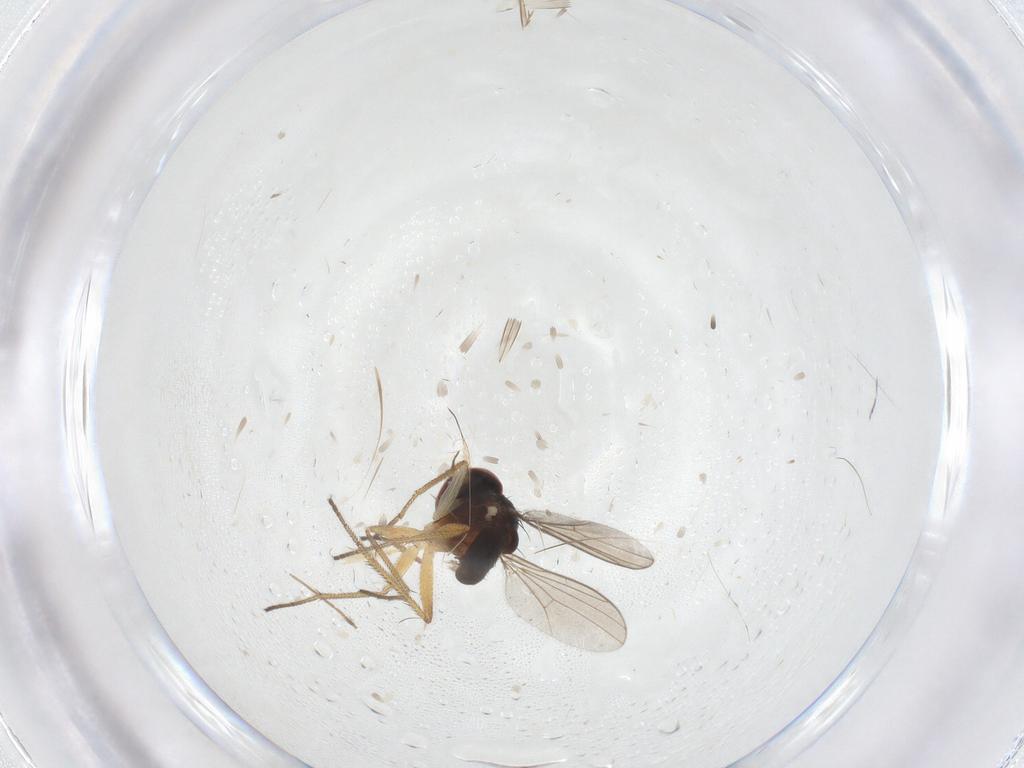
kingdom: Animalia
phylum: Arthropoda
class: Insecta
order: Diptera
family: Dolichopodidae
